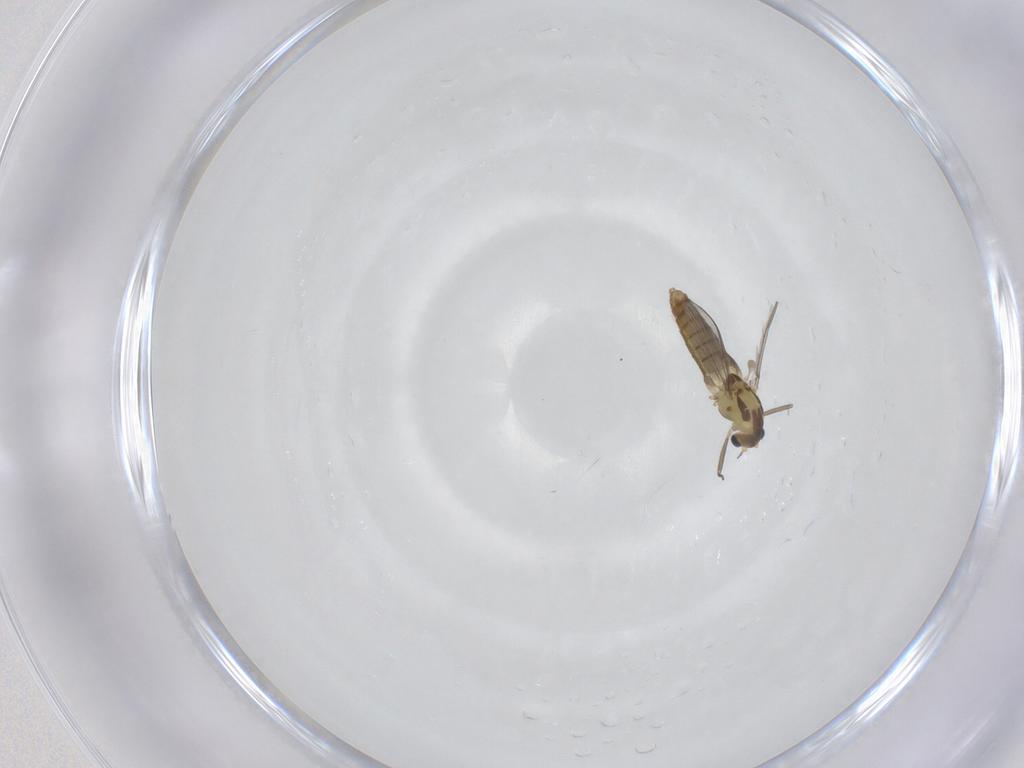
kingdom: Animalia
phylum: Arthropoda
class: Insecta
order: Diptera
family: Chironomidae
